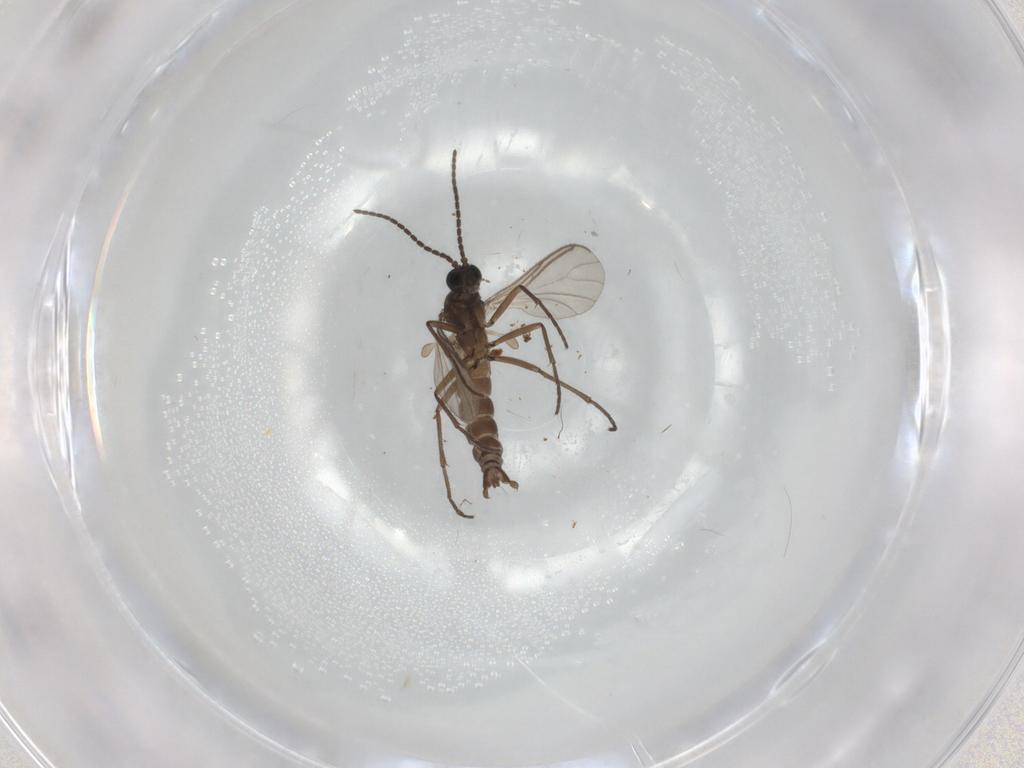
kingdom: Animalia
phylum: Arthropoda
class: Insecta
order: Diptera
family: Sciaridae
